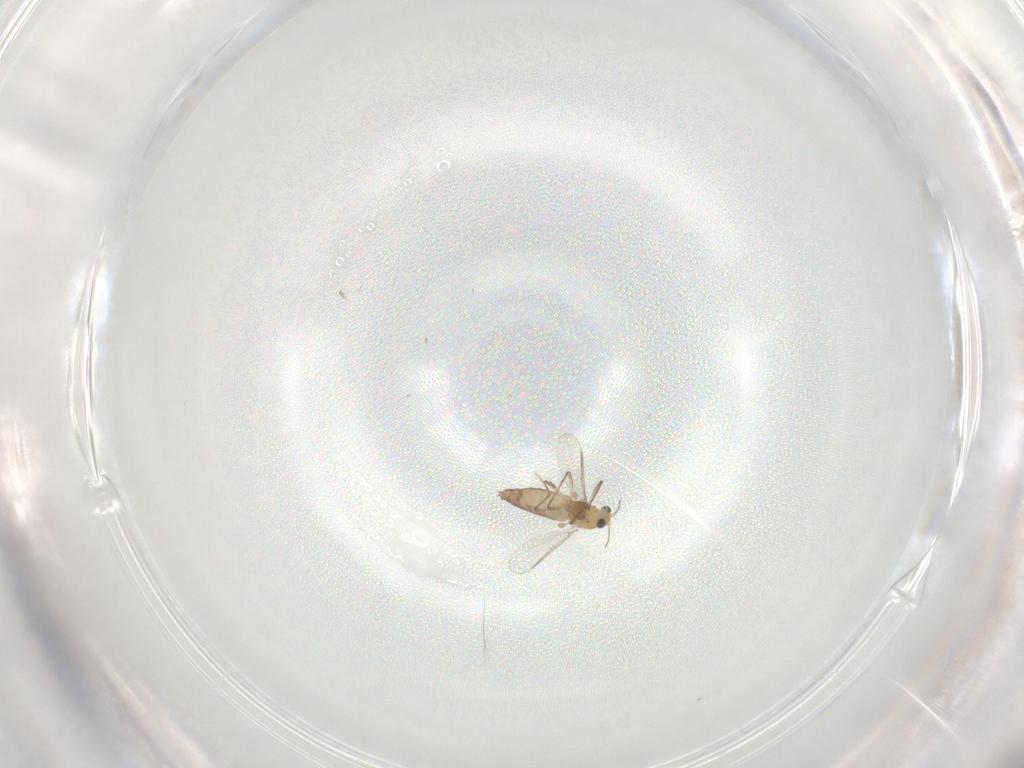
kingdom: Animalia
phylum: Arthropoda
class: Insecta
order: Diptera
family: Chironomidae
